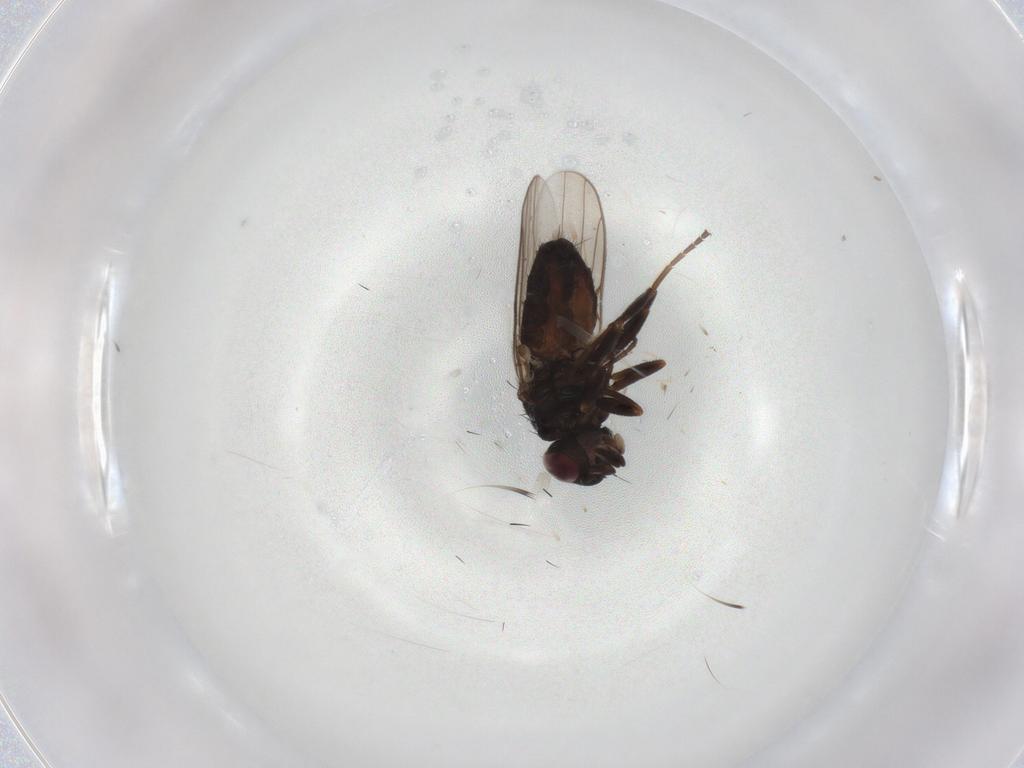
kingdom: Animalia
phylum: Arthropoda
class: Insecta
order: Diptera
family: Chloropidae
